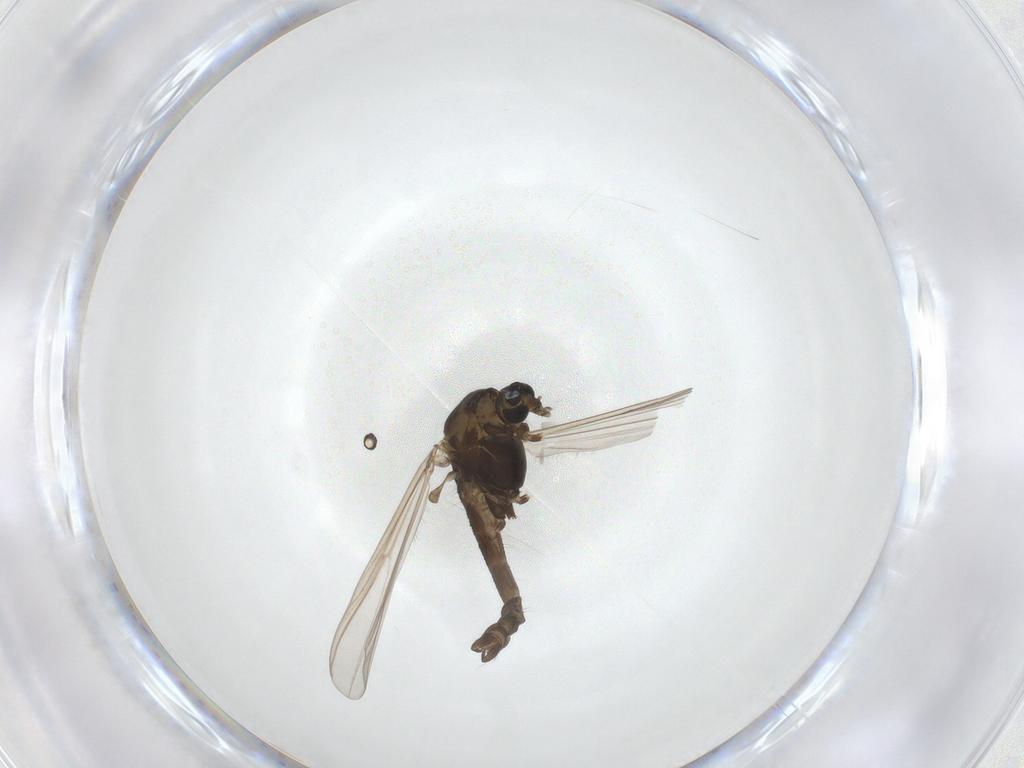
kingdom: Animalia
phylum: Arthropoda
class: Insecta
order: Diptera
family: Chironomidae
